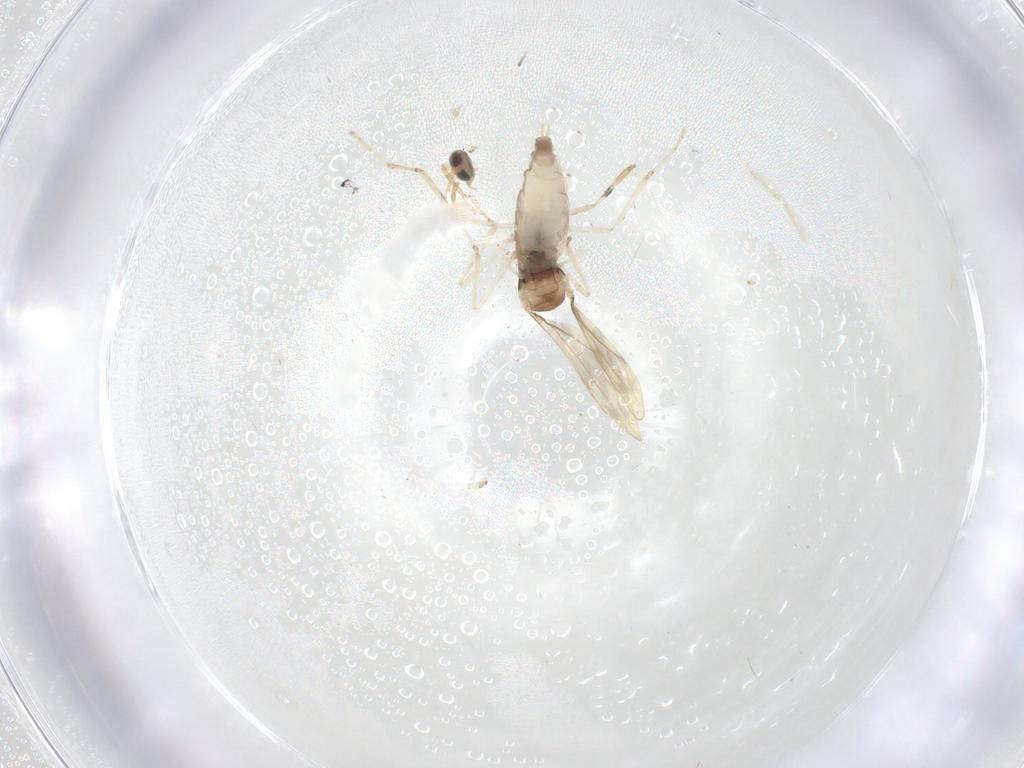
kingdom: Animalia
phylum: Arthropoda
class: Insecta
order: Diptera
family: Cecidomyiidae
